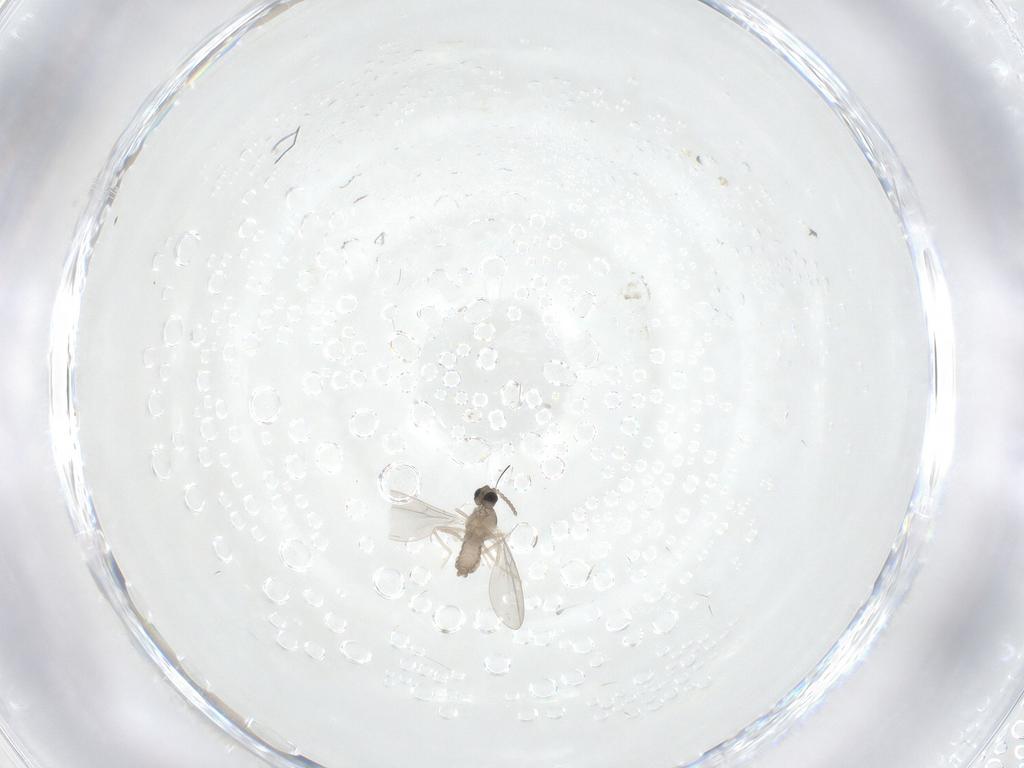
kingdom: Animalia
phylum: Arthropoda
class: Insecta
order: Diptera
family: Cecidomyiidae
